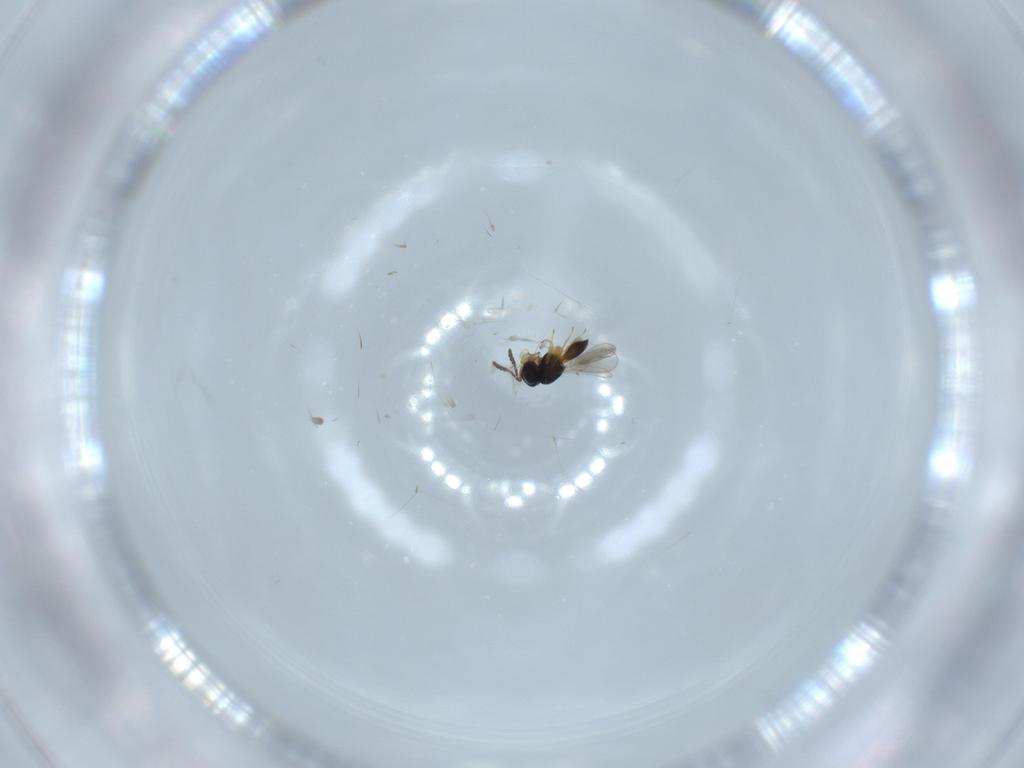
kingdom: Animalia
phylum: Arthropoda
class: Insecta
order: Hymenoptera
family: Scelionidae
